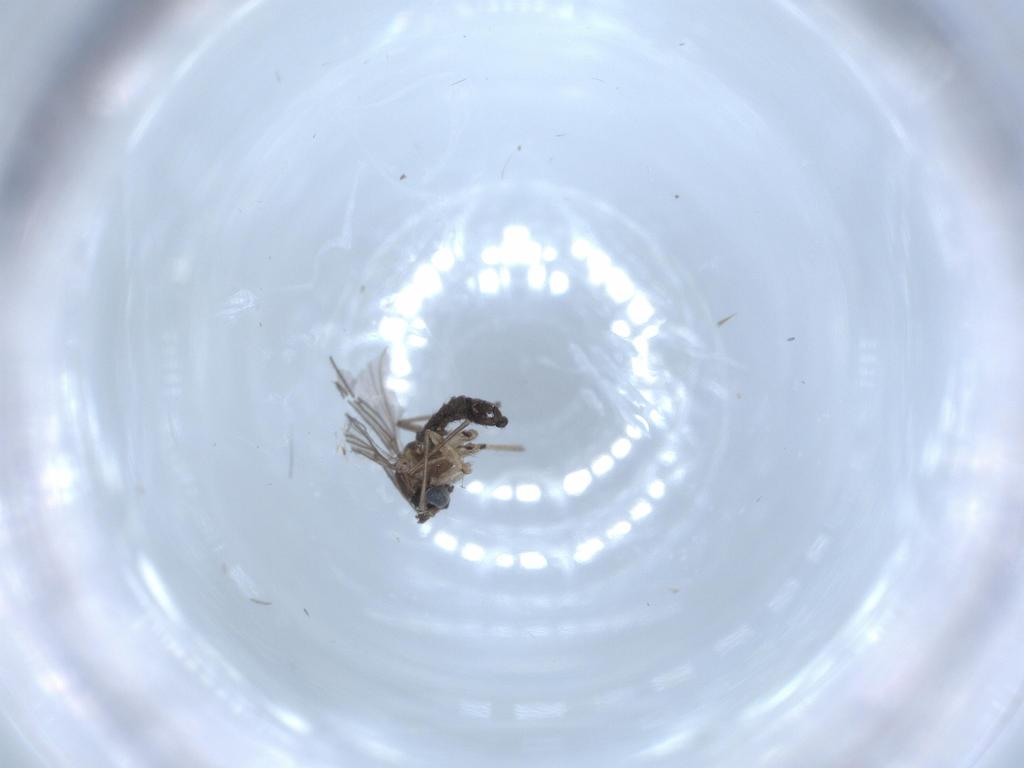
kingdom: Animalia
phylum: Arthropoda
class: Insecta
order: Diptera
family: Sciaridae
